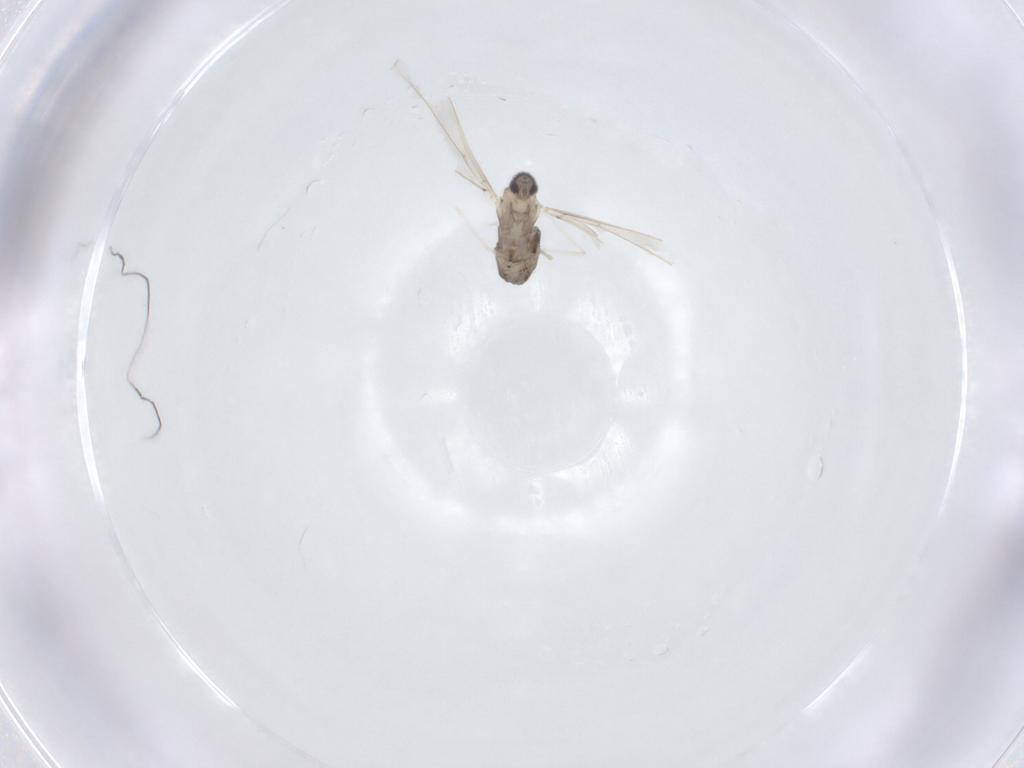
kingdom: Animalia
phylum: Arthropoda
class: Insecta
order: Diptera
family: Cecidomyiidae
